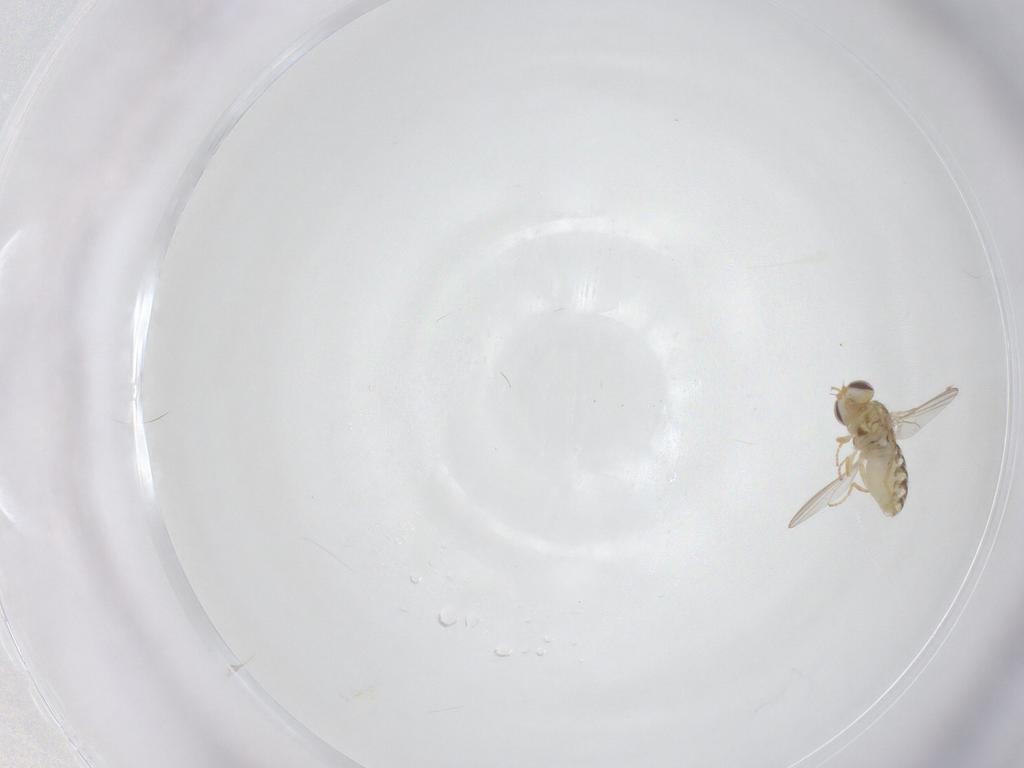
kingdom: Animalia
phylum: Arthropoda
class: Insecta
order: Diptera
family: Chyromyidae
